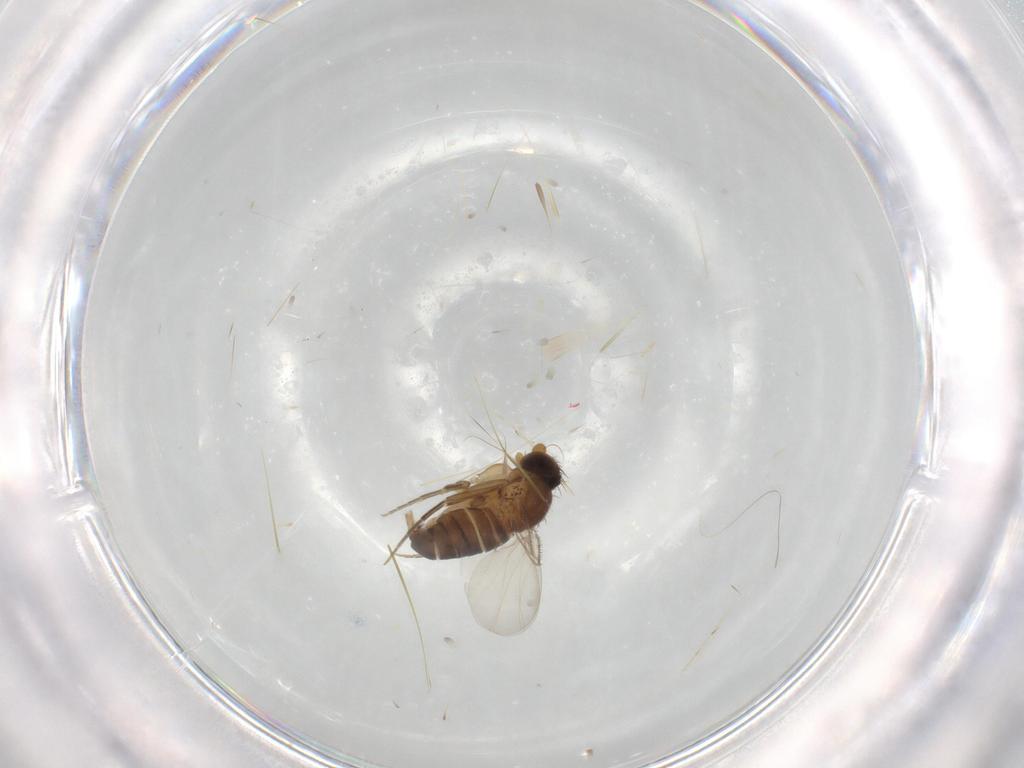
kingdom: Animalia
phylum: Arthropoda
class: Insecta
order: Diptera
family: Phoridae
